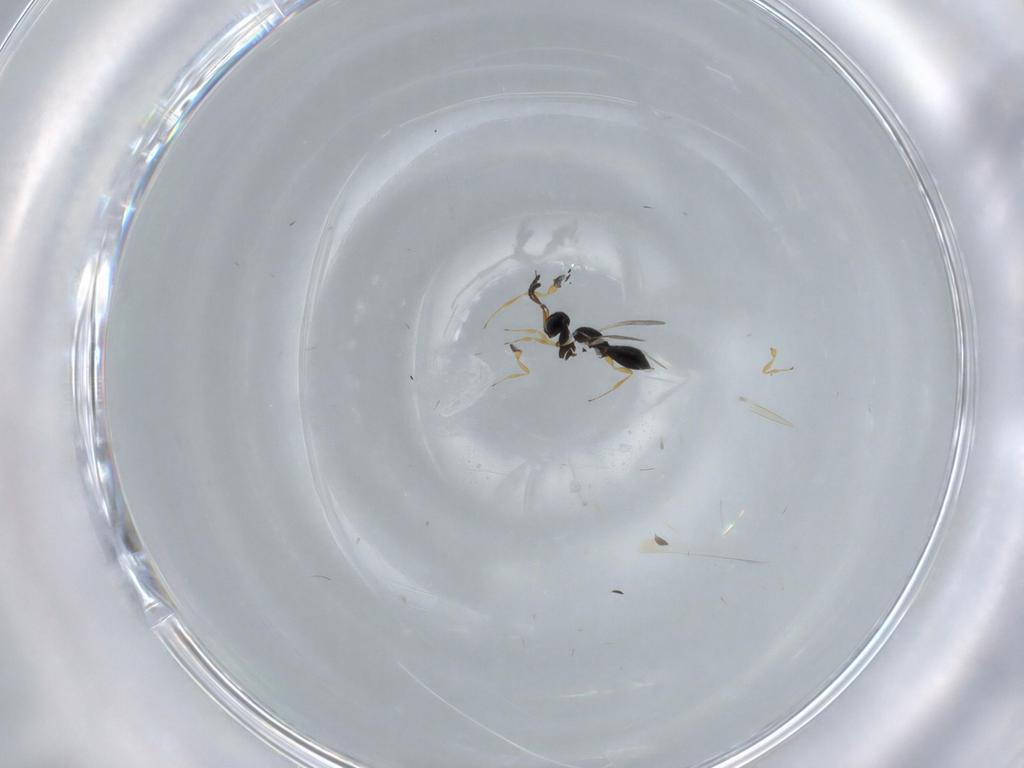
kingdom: Animalia
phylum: Arthropoda
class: Insecta
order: Hymenoptera
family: Scelionidae
